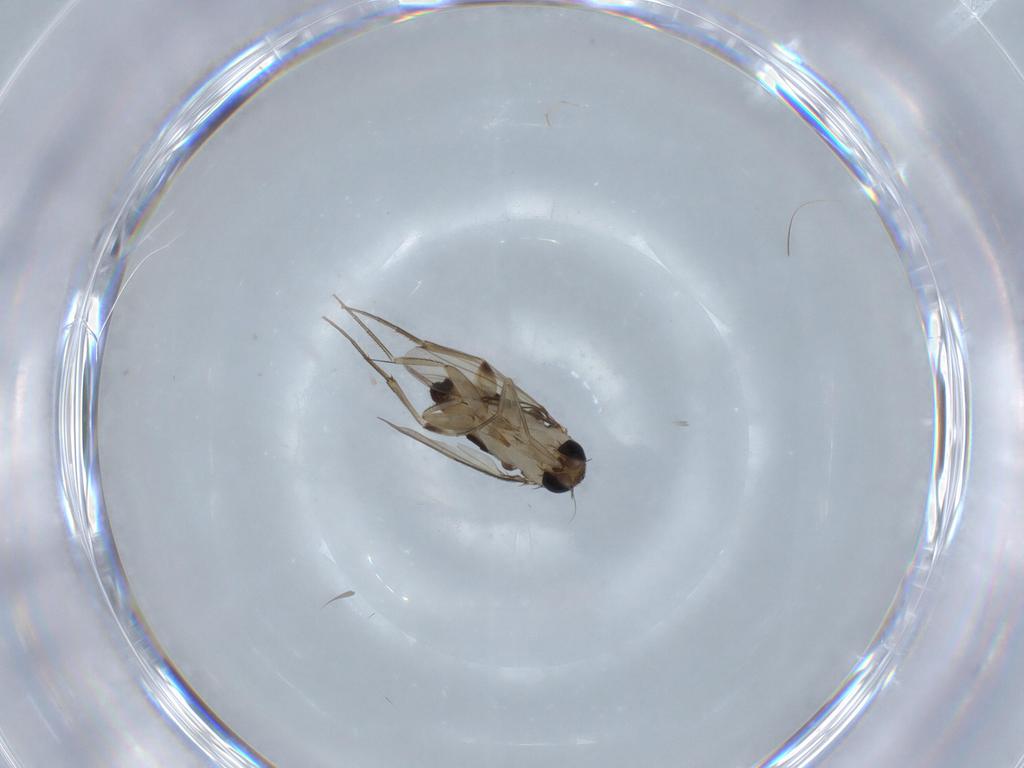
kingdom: Animalia
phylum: Arthropoda
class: Insecta
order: Diptera
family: Phoridae
